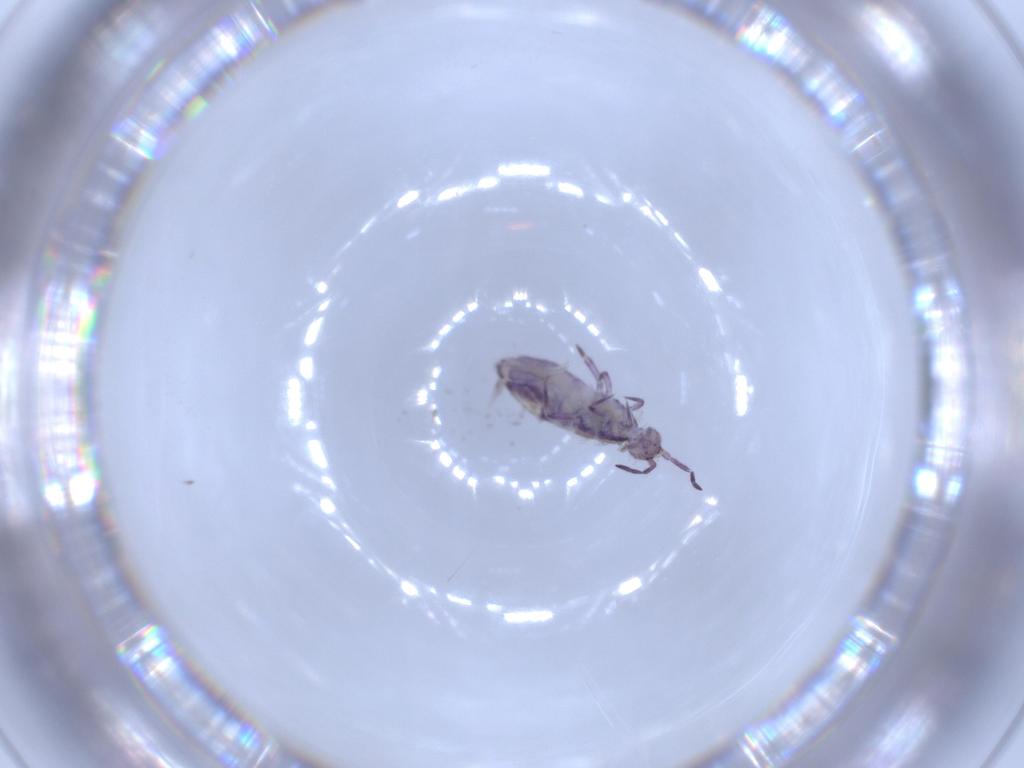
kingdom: Animalia
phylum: Arthropoda
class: Collembola
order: Entomobryomorpha
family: Entomobryidae
